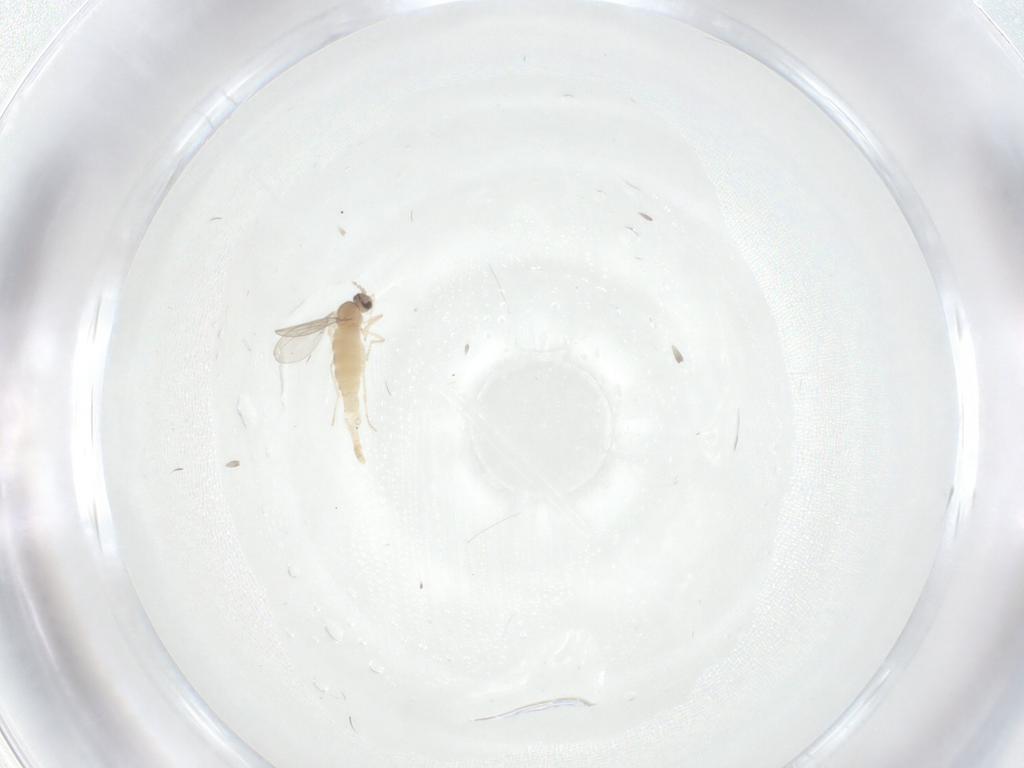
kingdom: Animalia
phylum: Arthropoda
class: Insecta
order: Diptera
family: Cecidomyiidae
